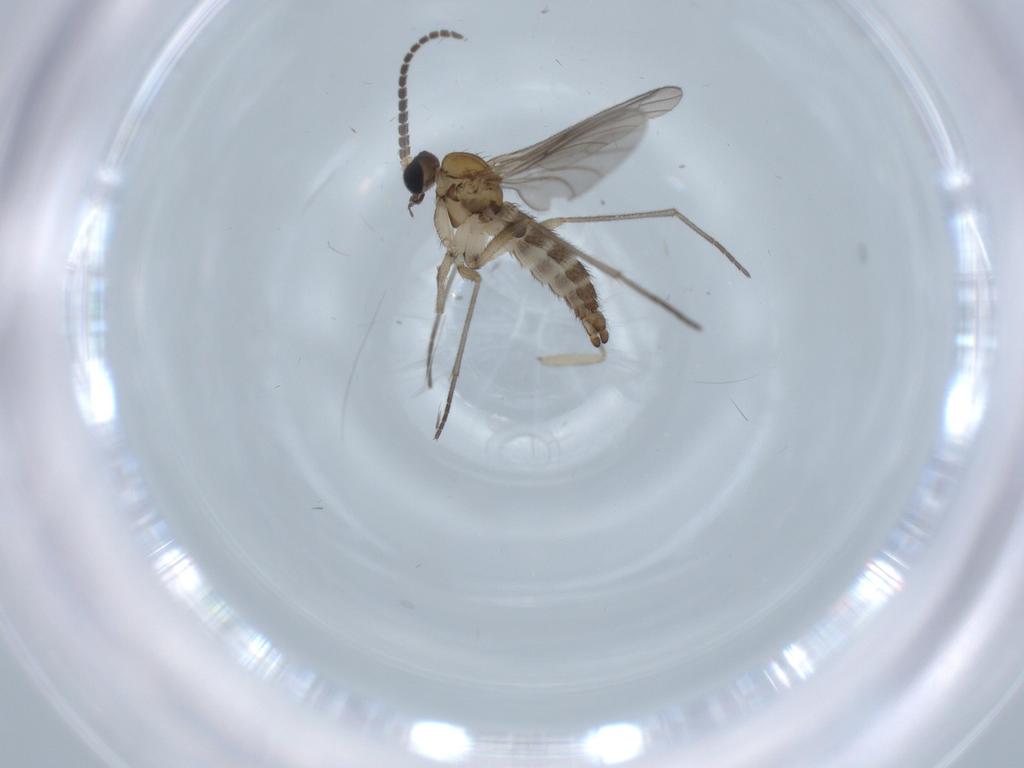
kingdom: Animalia
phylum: Arthropoda
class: Insecta
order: Diptera
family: Sciaridae
